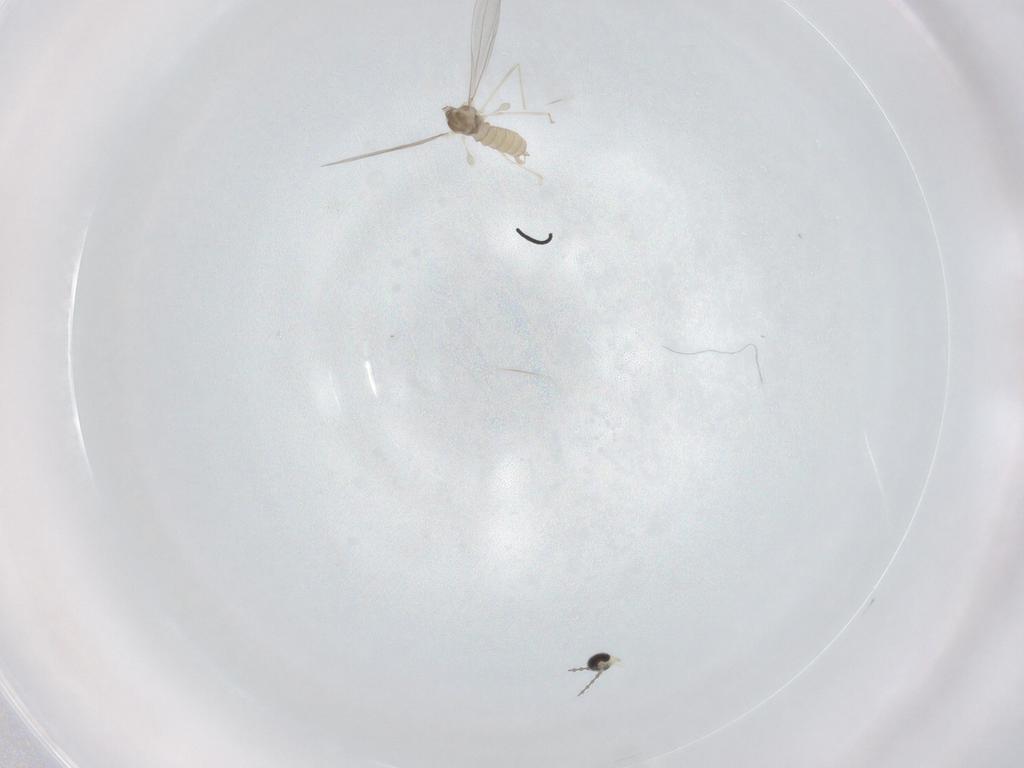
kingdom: Animalia
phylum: Arthropoda
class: Insecta
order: Diptera
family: Cecidomyiidae
